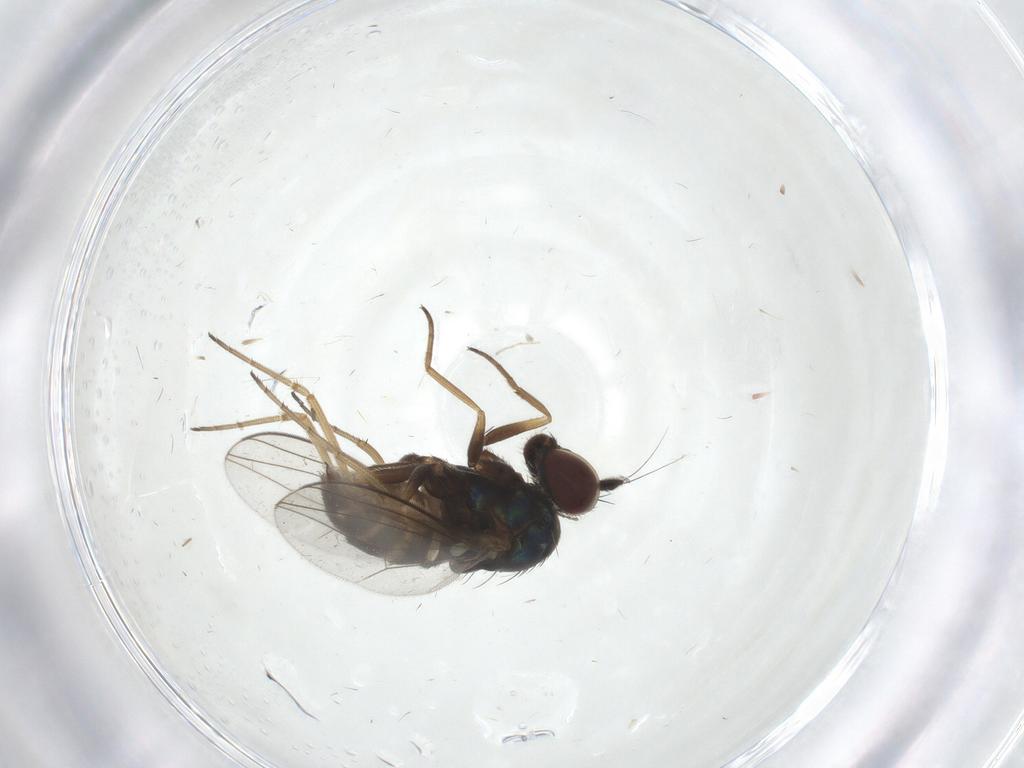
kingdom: Animalia
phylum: Arthropoda
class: Insecta
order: Diptera
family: Dolichopodidae
